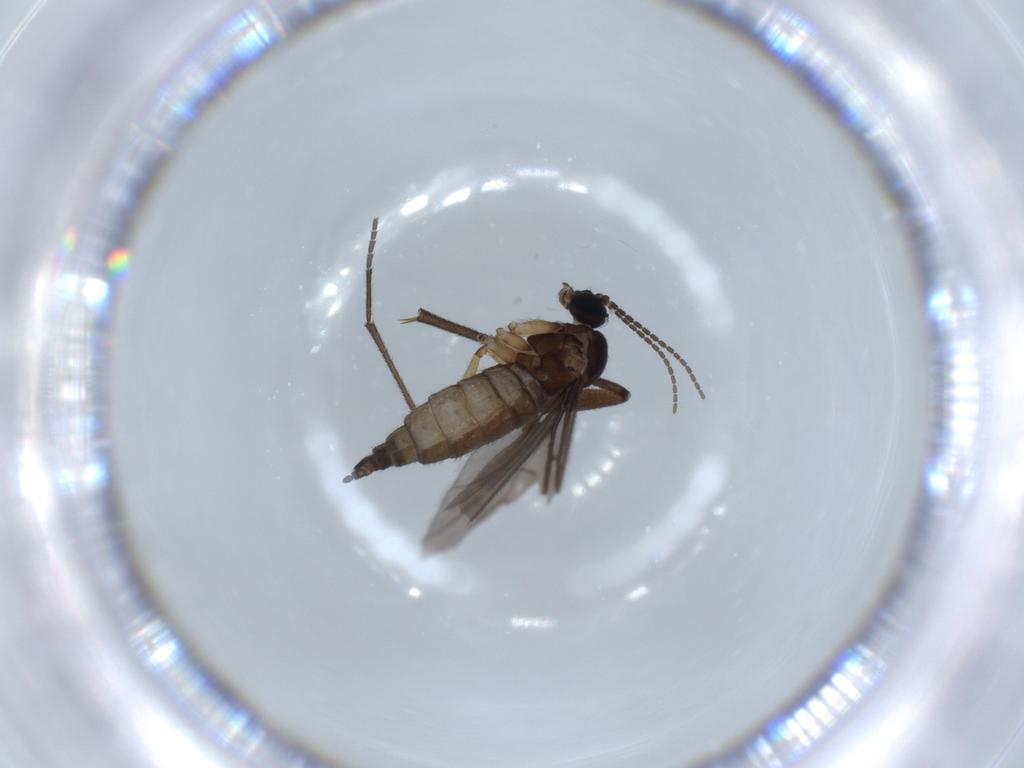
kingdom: Animalia
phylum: Arthropoda
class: Insecta
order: Diptera
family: Sciaridae
